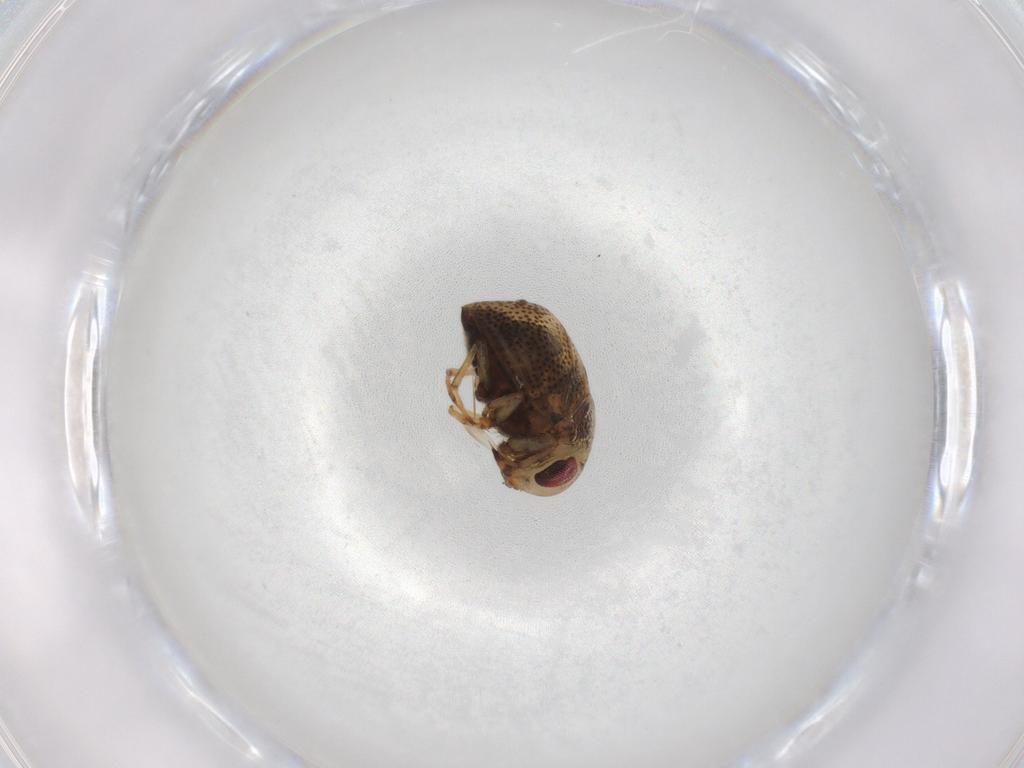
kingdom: Animalia
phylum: Arthropoda
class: Insecta
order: Hemiptera
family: Pleidae
